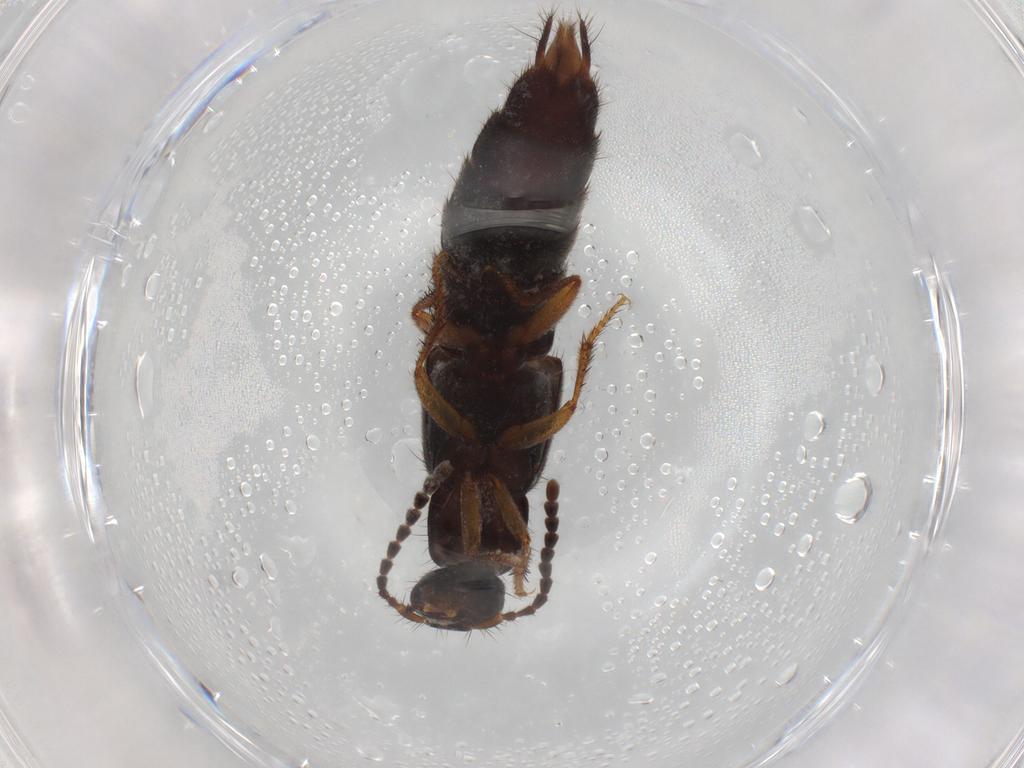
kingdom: Animalia
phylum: Arthropoda
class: Insecta
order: Coleoptera
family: Staphylinidae
